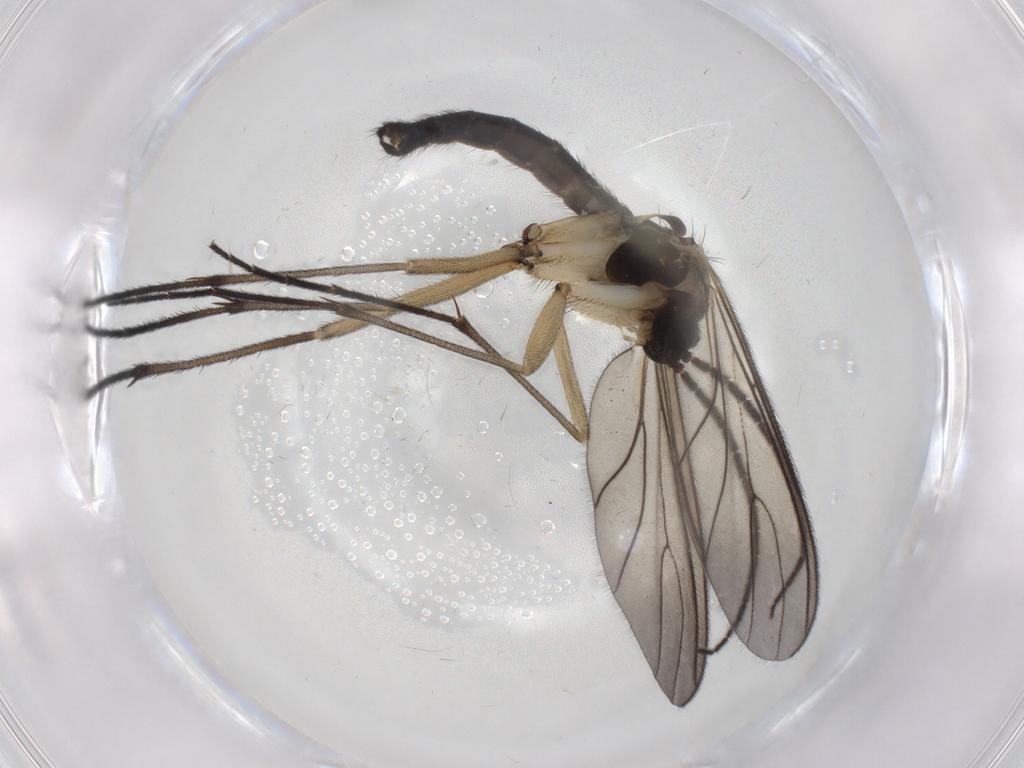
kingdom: Animalia
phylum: Arthropoda
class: Insecta
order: Diptera
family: Sciaridae
